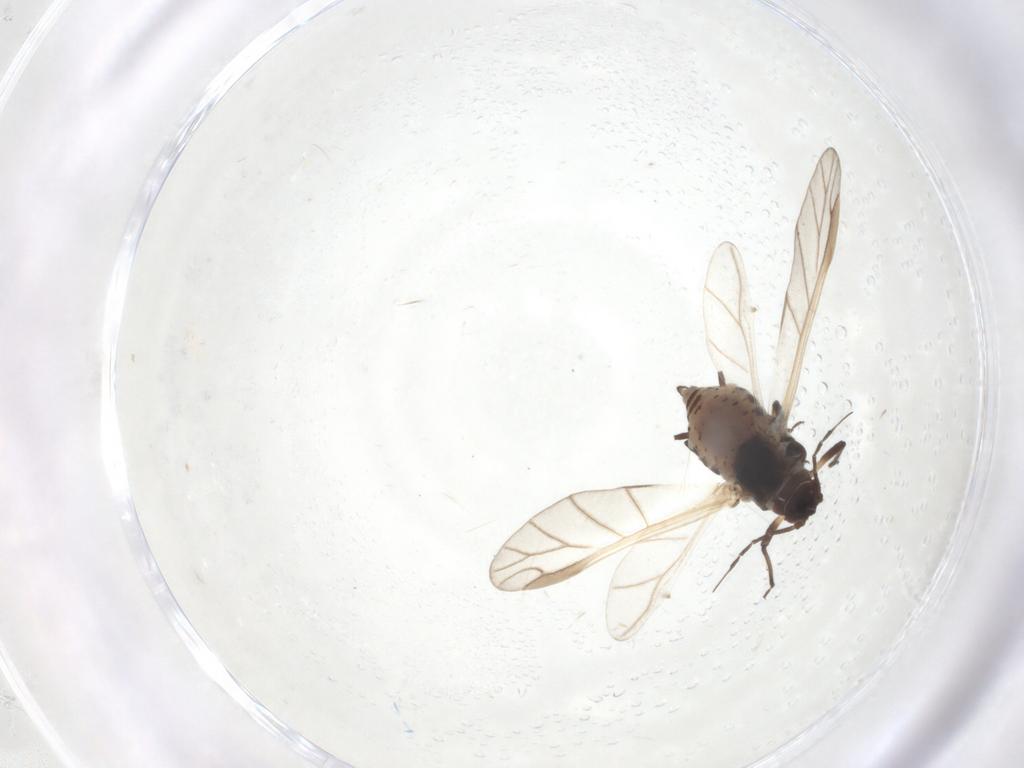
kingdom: Animalia
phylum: Arthropoda
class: Insecta
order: Hemiptera
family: Aphididae
